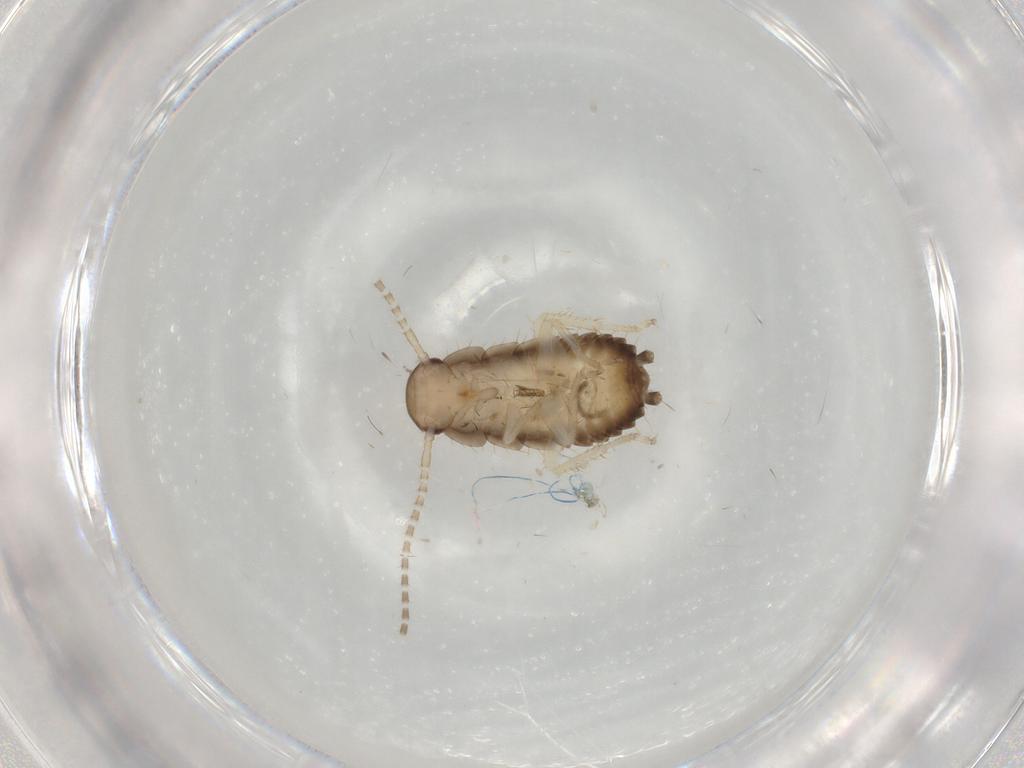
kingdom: Animalia
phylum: Arthropoda
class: Insecta
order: Blattodea
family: Ectobiidae
